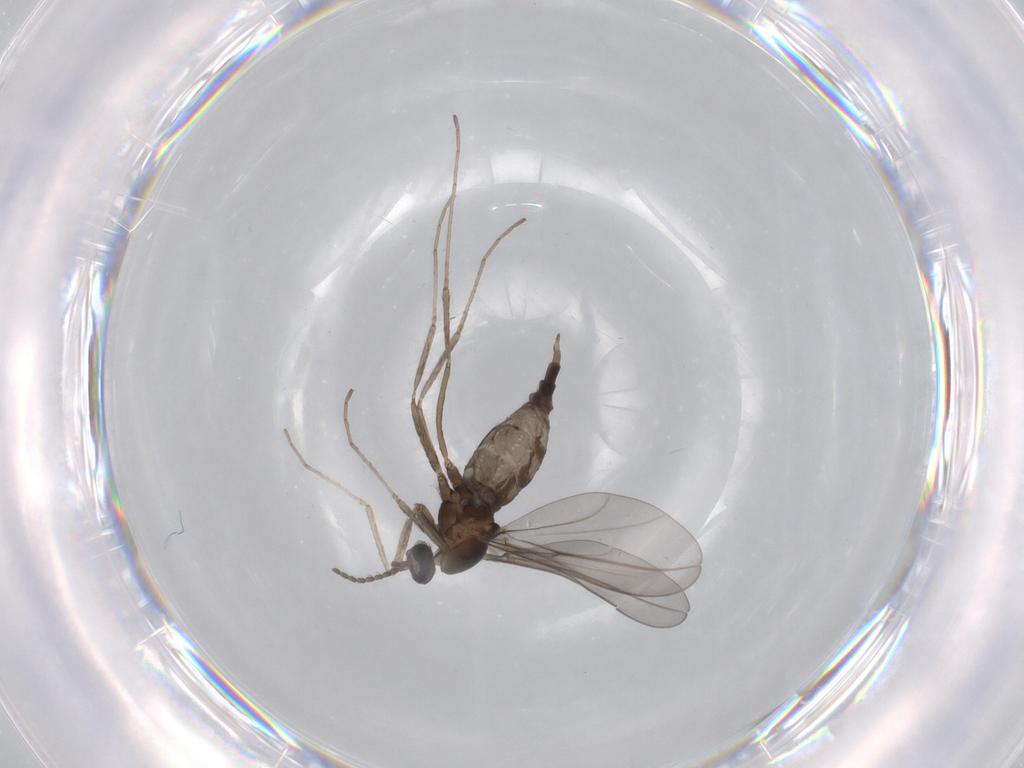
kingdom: Animalia
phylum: Arthropoda
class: Insecta
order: Diptera
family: Cecidomyiidae
